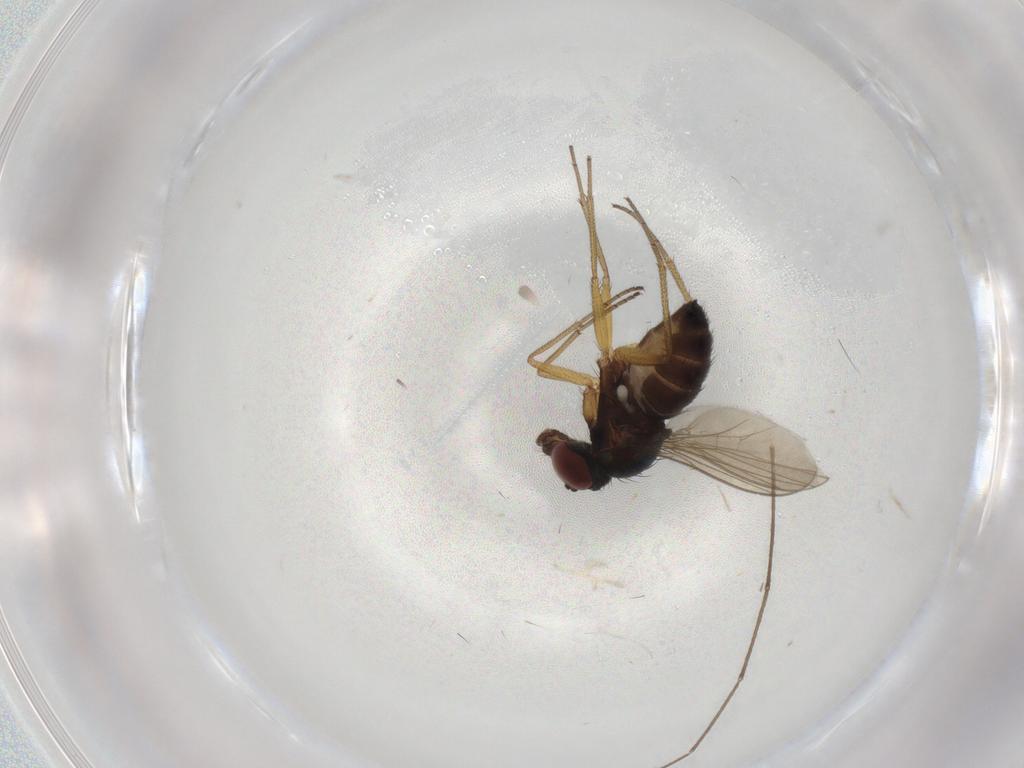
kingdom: Animalia
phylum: Arthropoda
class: Insecta
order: Diptera
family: Dolichopodidae
